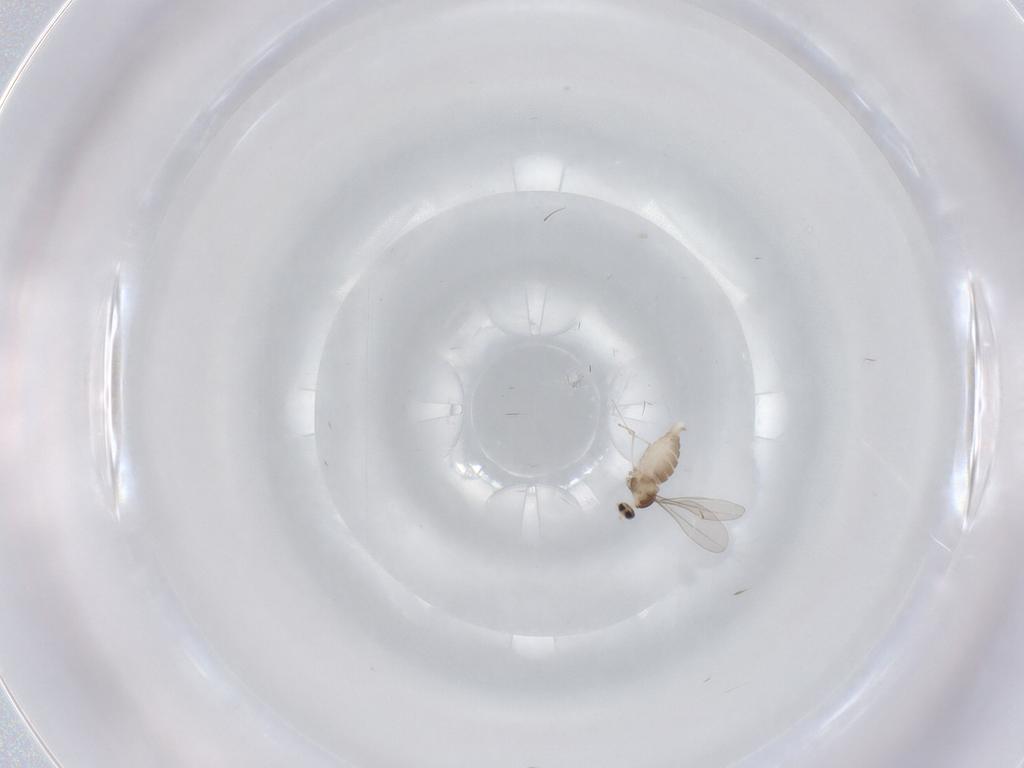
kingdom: Animalia
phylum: Arthropoda
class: Insecta
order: Diptera
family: Cecidomyiidae
